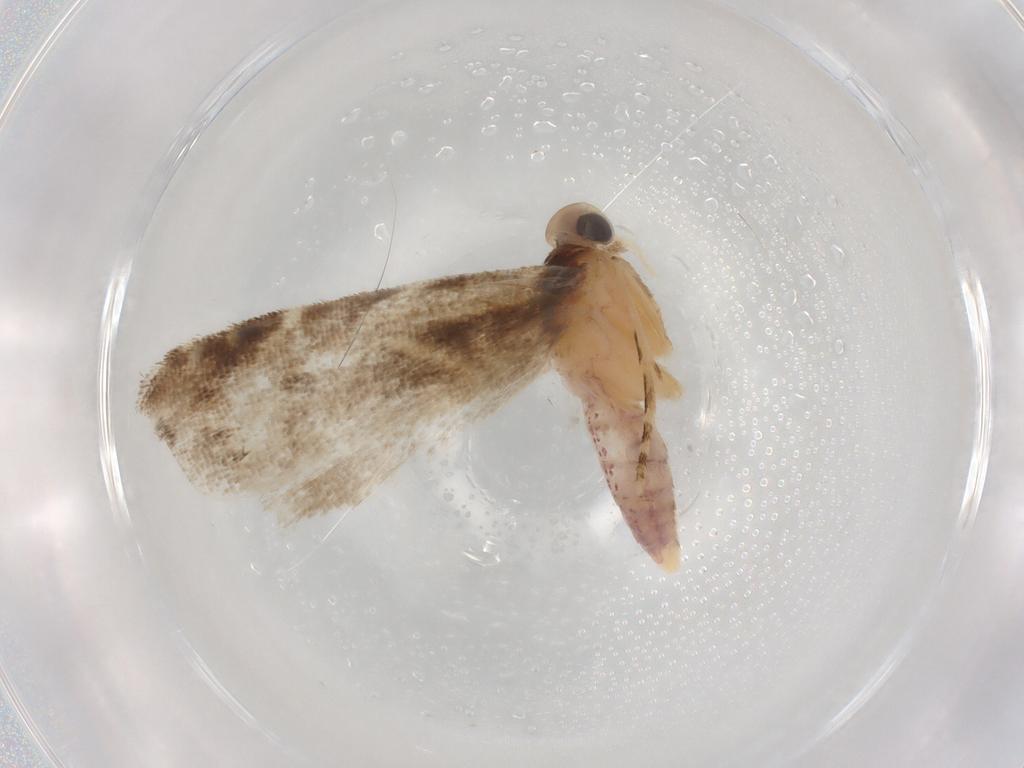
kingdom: Animalia
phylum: Arthropoda
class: Insecta
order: Lepidoptera
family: Gelechiidae
